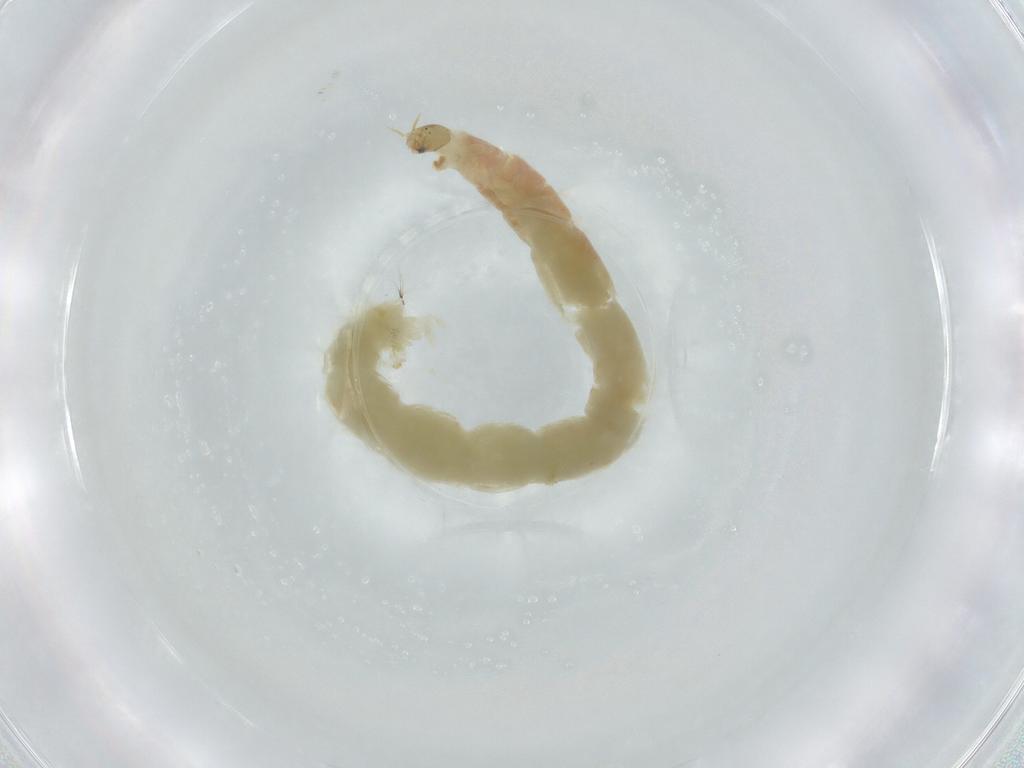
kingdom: Animalia
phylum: Arthropoda
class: Insecta
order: Diptera
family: Chironomidae
